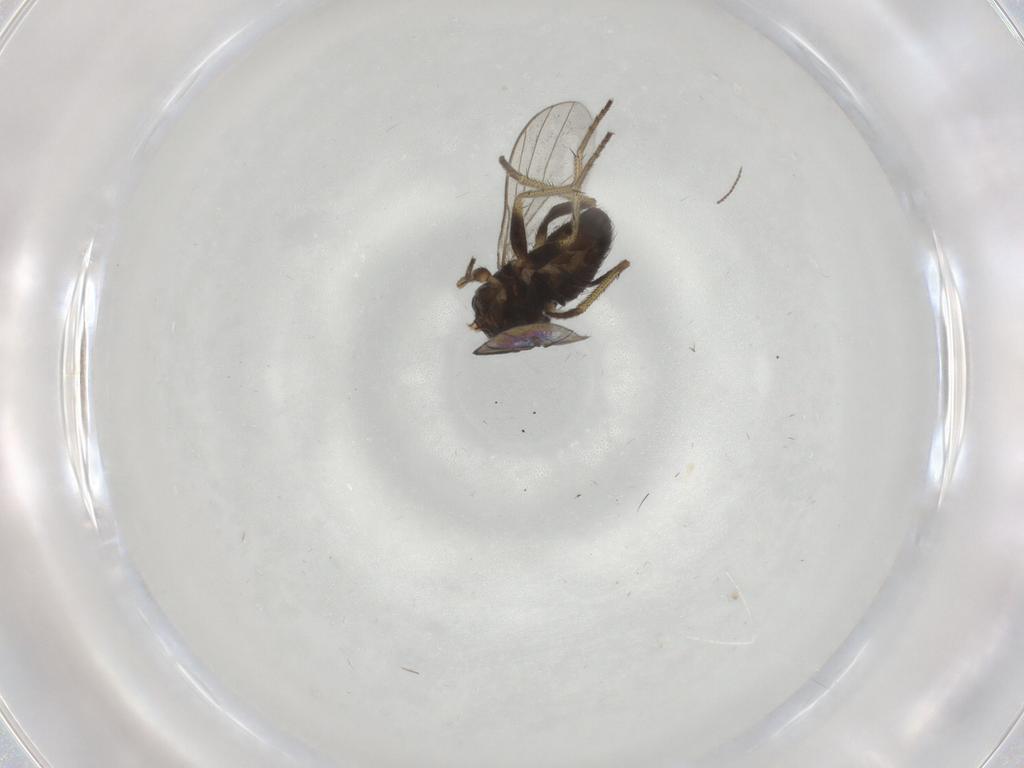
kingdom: Animalia
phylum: Arthropoda
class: Insecta
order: Diptera
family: Dolichopodidae
